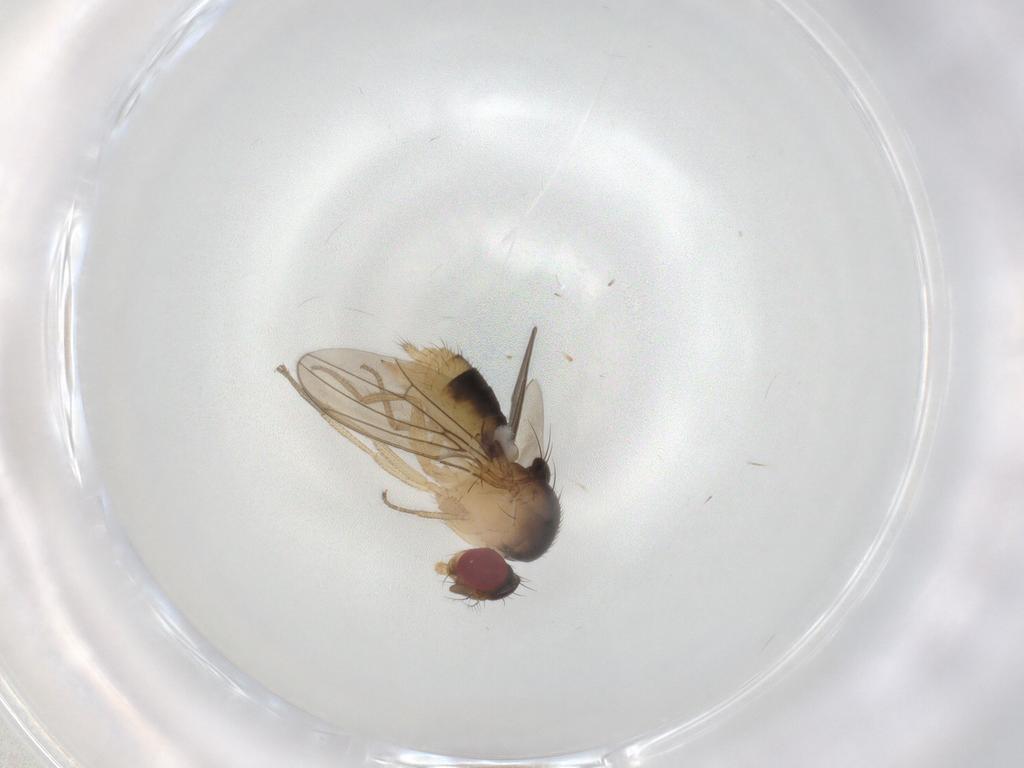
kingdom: Animalia
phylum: Arthropoda
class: Insecta
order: Diptera
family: Drosophilidae
